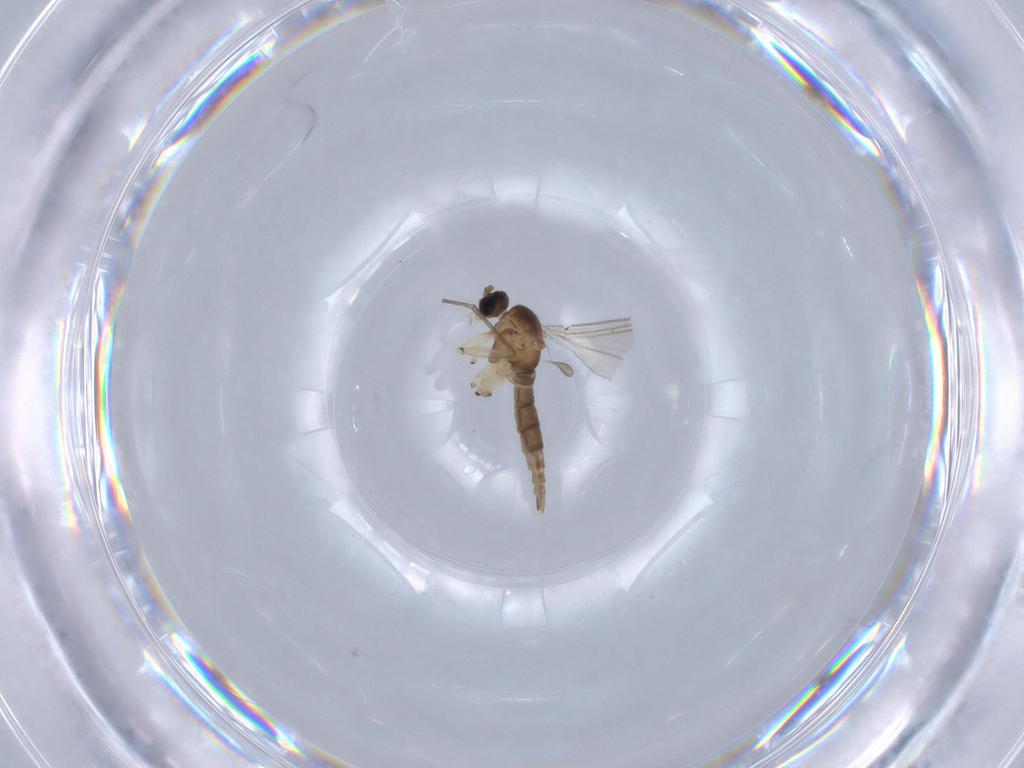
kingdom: Animalia
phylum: Arthropoda
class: Insecta
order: Diptera
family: Sciaridae
